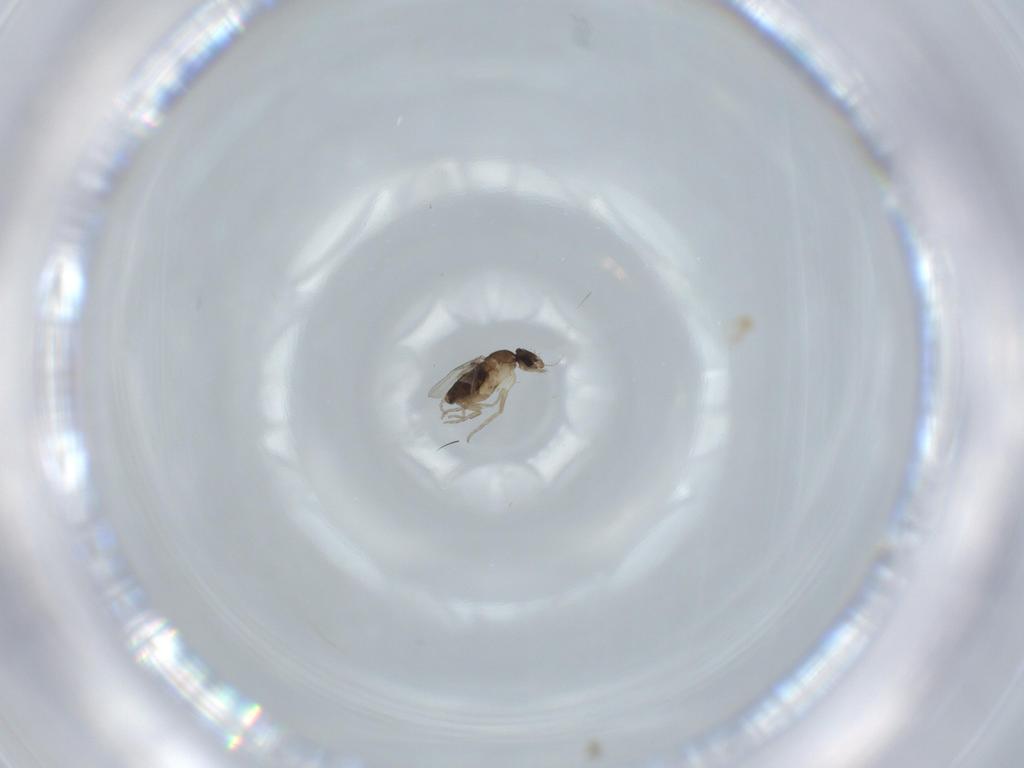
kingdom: Animalia
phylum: Arthropoda
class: Insecta
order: Diptera
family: Phoridae
